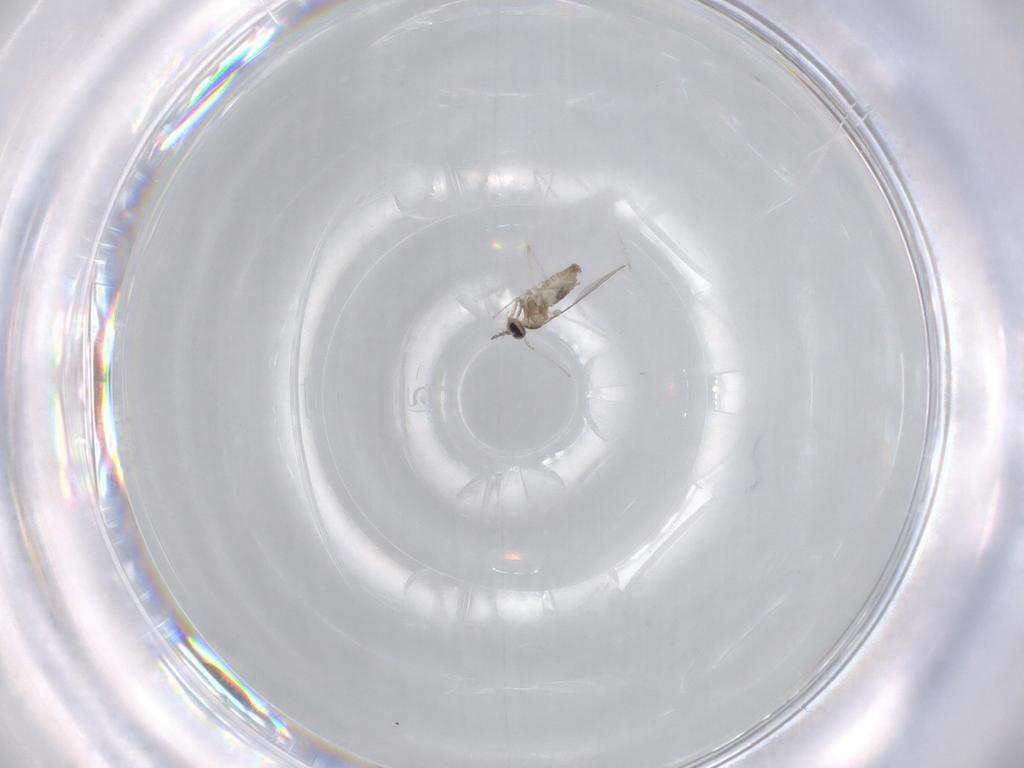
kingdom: Animalia
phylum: Arthropoda
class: Insecta
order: Diptera
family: Chironomidae
